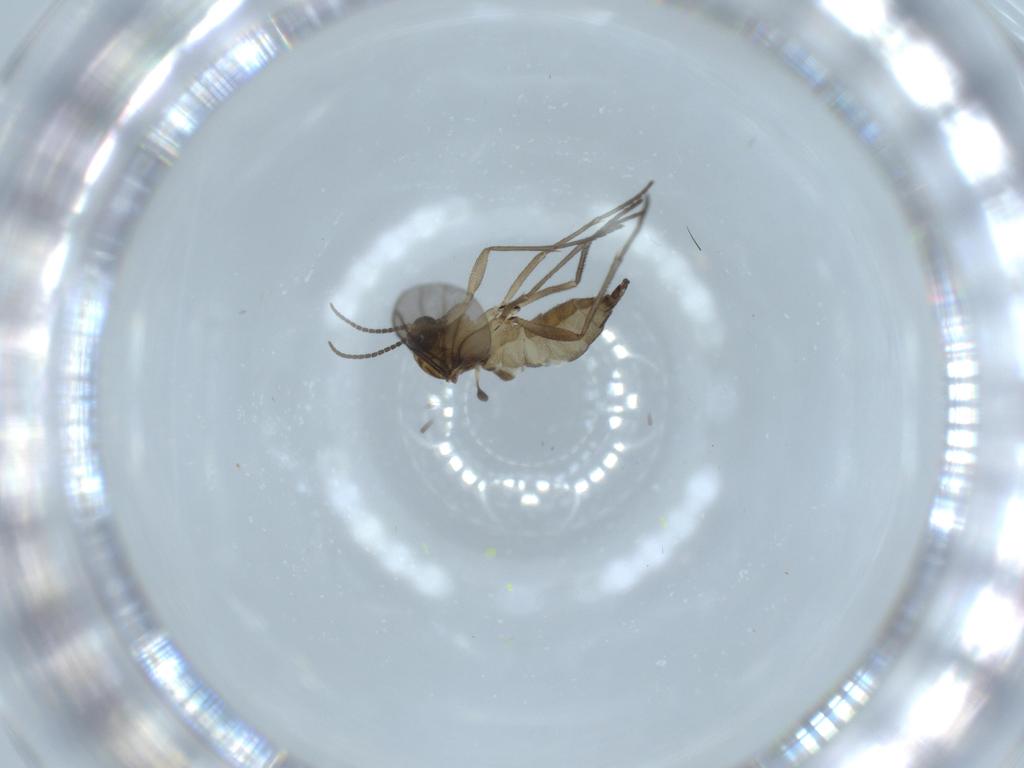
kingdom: Animalia
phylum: Arthropoda
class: Insecta
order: Diptera
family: Sciaridae
